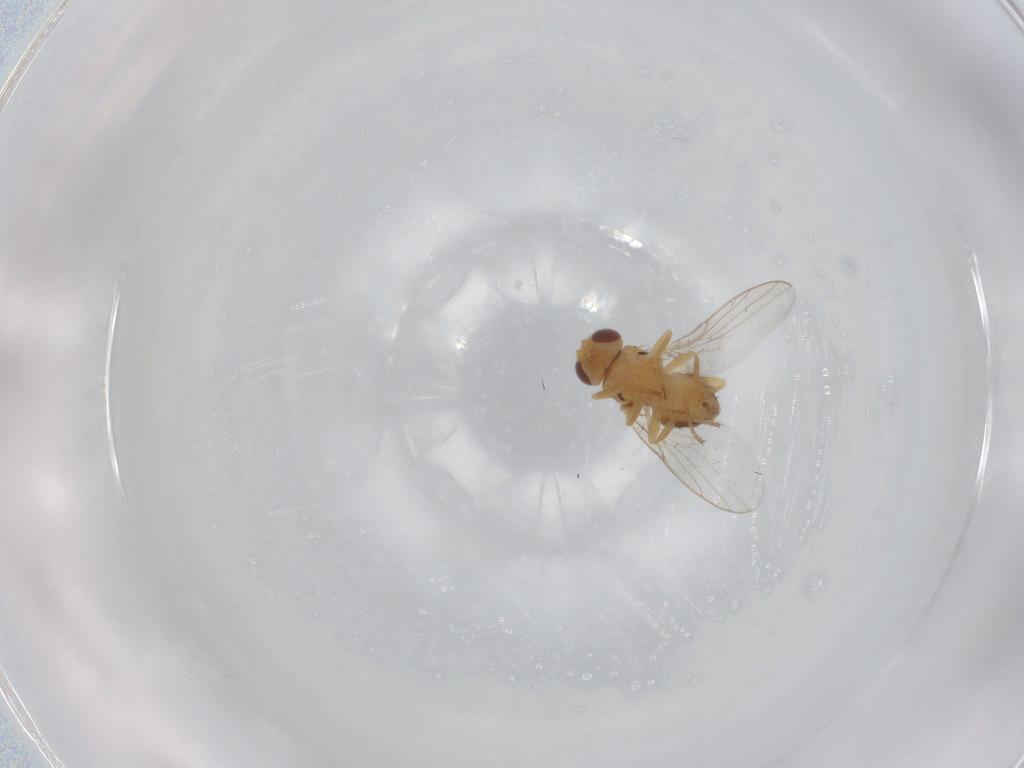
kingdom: Animalia
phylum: Arthropoda
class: Insecta
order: Diptera
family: Chloropidae
